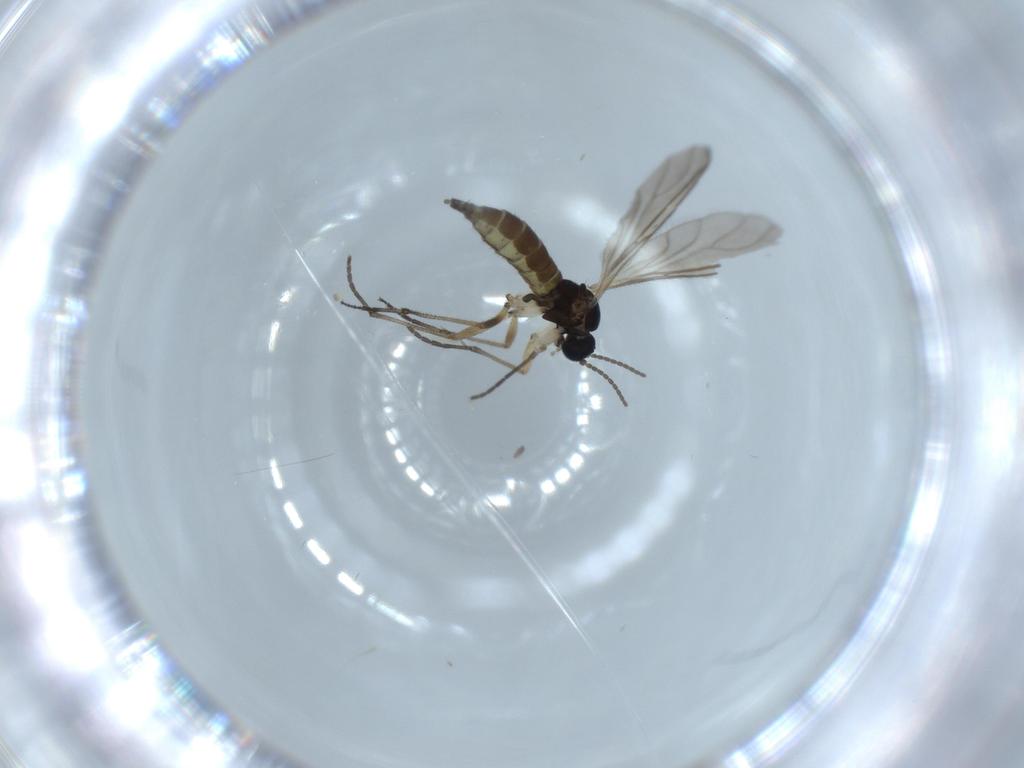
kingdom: Animalia
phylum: Arthropoda
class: Insecta
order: Diptera
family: Sciaridae
